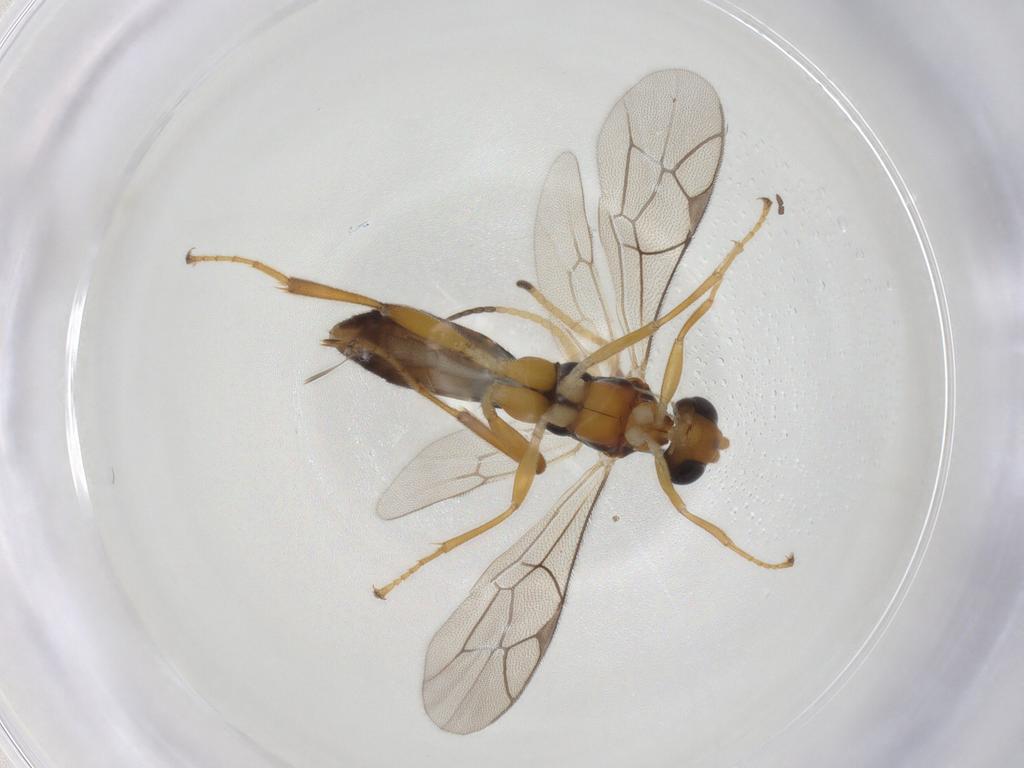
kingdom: Animalia
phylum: Arthropoda
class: Insecta
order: Hymenoptera
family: Ichneumonidae
